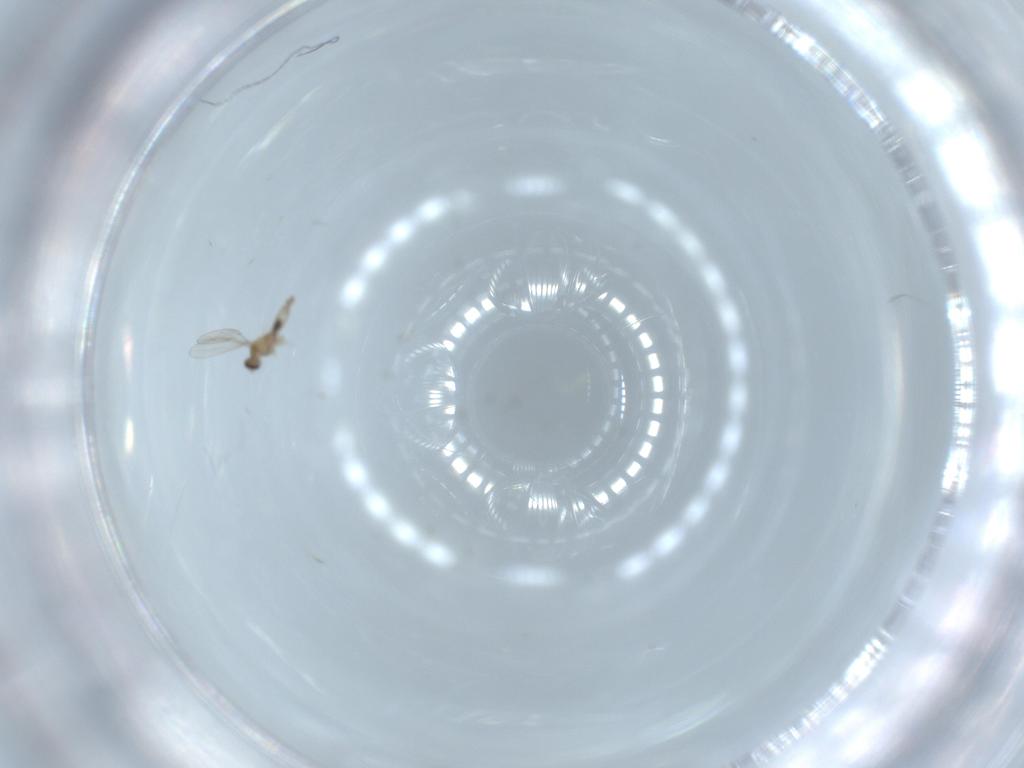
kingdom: Animalia
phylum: Arthropoda
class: Insecta
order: Diptera
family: Cecidomyiidae
